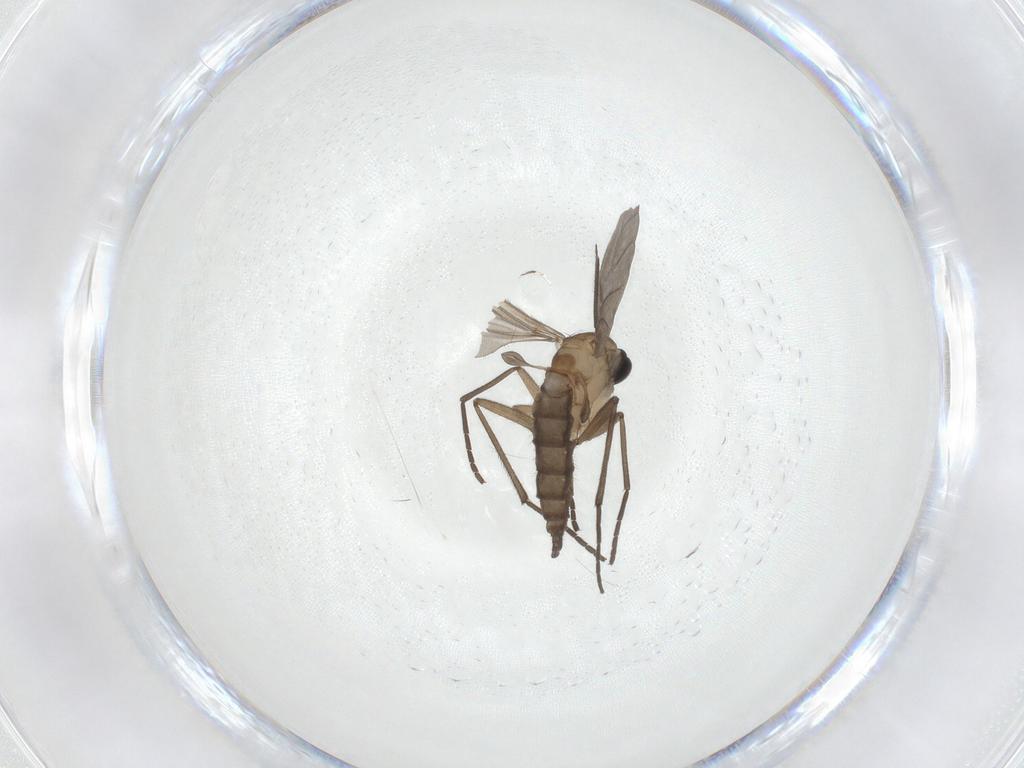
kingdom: Animalia
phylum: Arthropoda
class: Insecta
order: Diptera
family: Sciaridae
